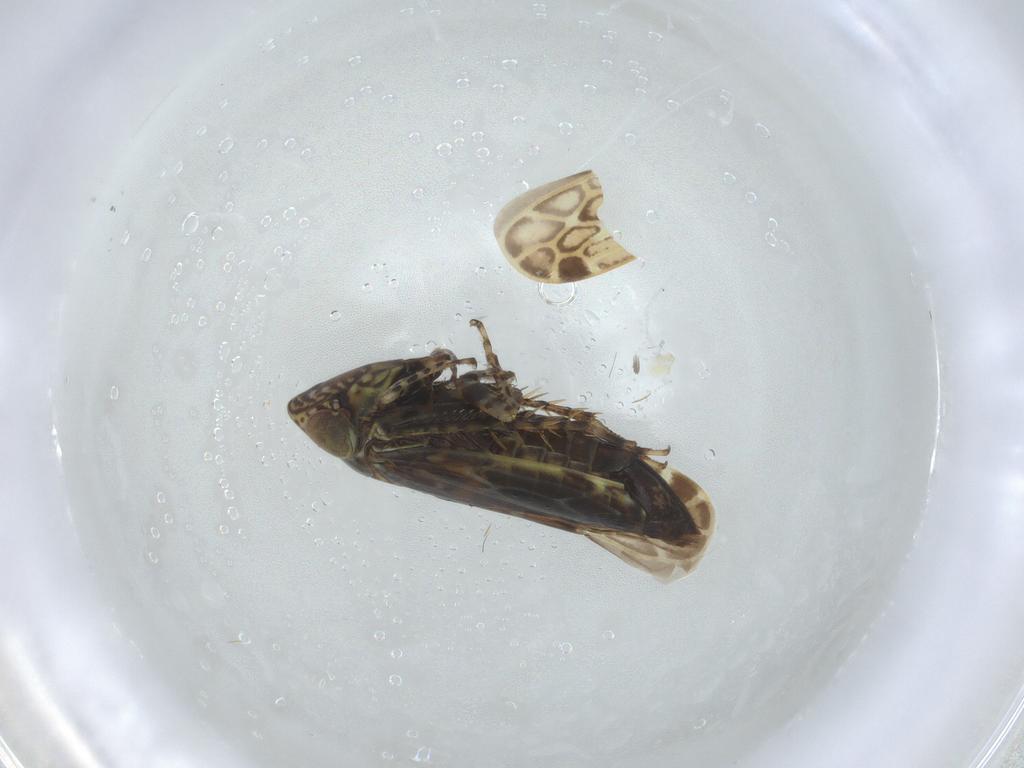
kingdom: Animalia
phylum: Arthropoda
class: Insecta
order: Hemiptera
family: Cicadellidae
